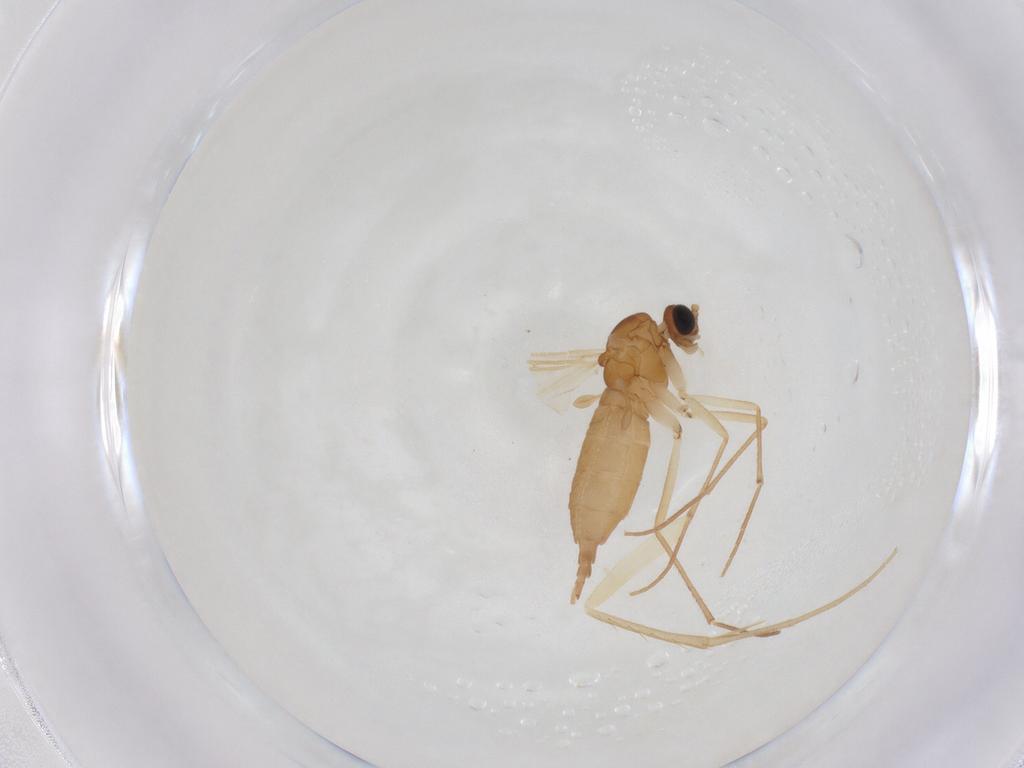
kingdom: Animalia
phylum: Arthropoda
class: Insecta
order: Diptera
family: Sciaridae
